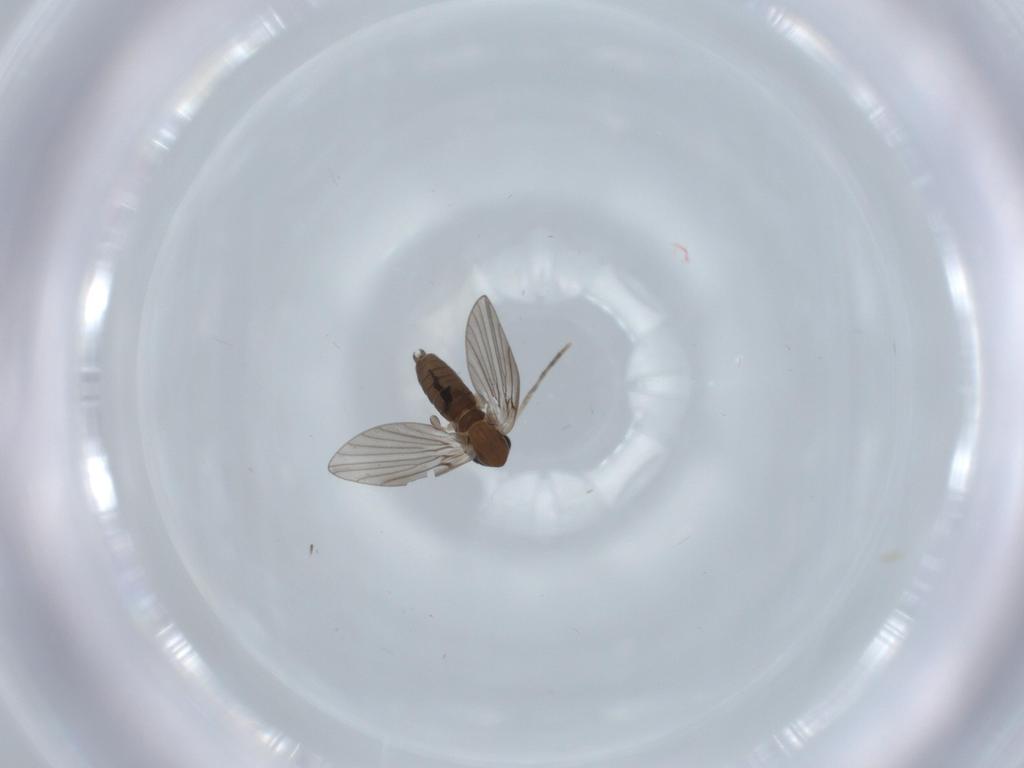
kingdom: Animalia
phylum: Arthropoda
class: Insecta
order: Diptera
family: Psychodidae
